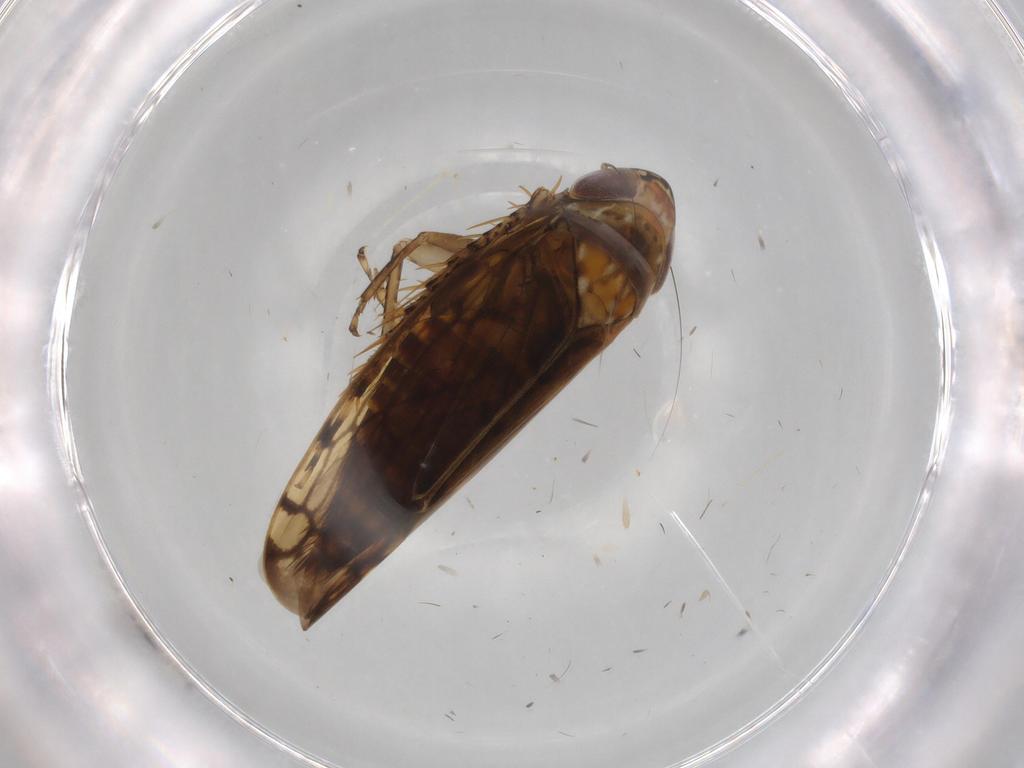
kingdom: Animalia
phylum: Arthropoda
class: Insecta
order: Hemiptera
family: Cicadellidae
